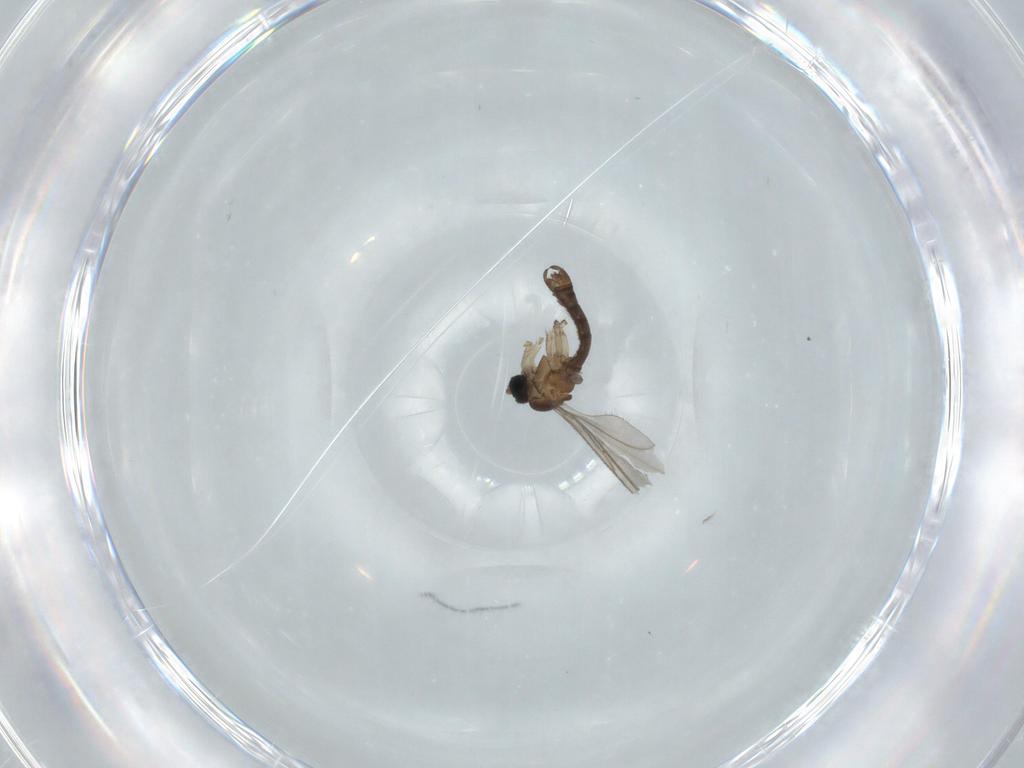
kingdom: Animalia
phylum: Arthropoda
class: Insecta
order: Diptera
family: Sciaridae
